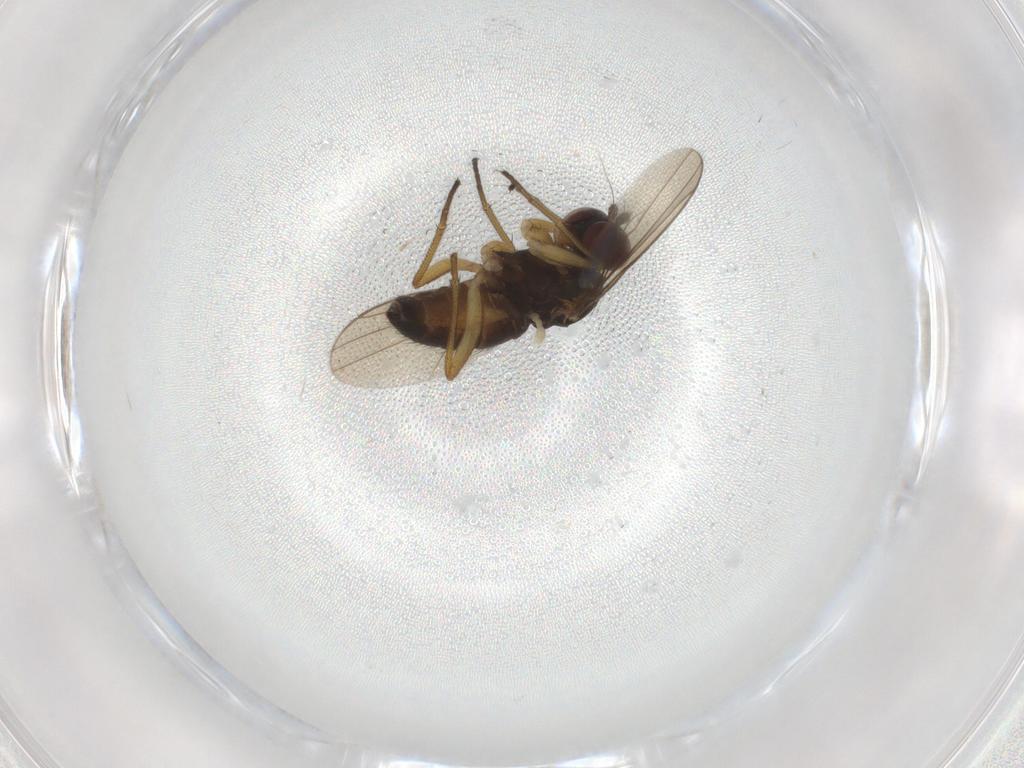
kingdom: Animalia
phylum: Arthropoda
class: Insecta
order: Diptera
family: Dolichopodidae
